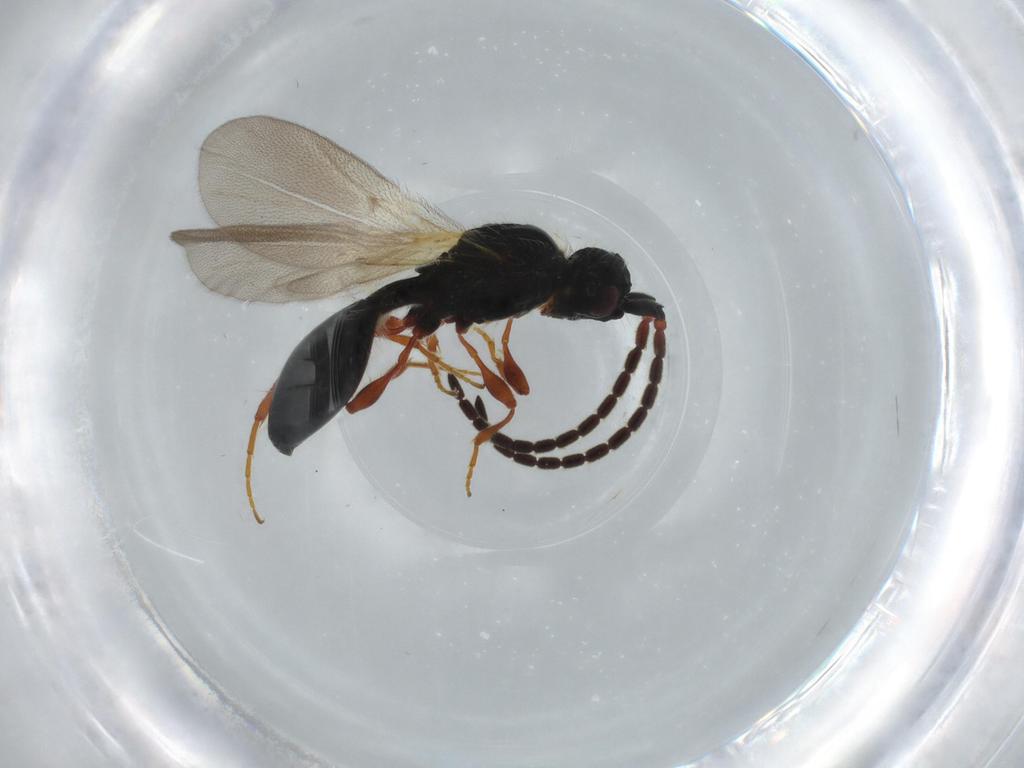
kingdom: Animalia
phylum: Arthropoda
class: Insecta
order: Hymenoptera
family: Diapriidae
